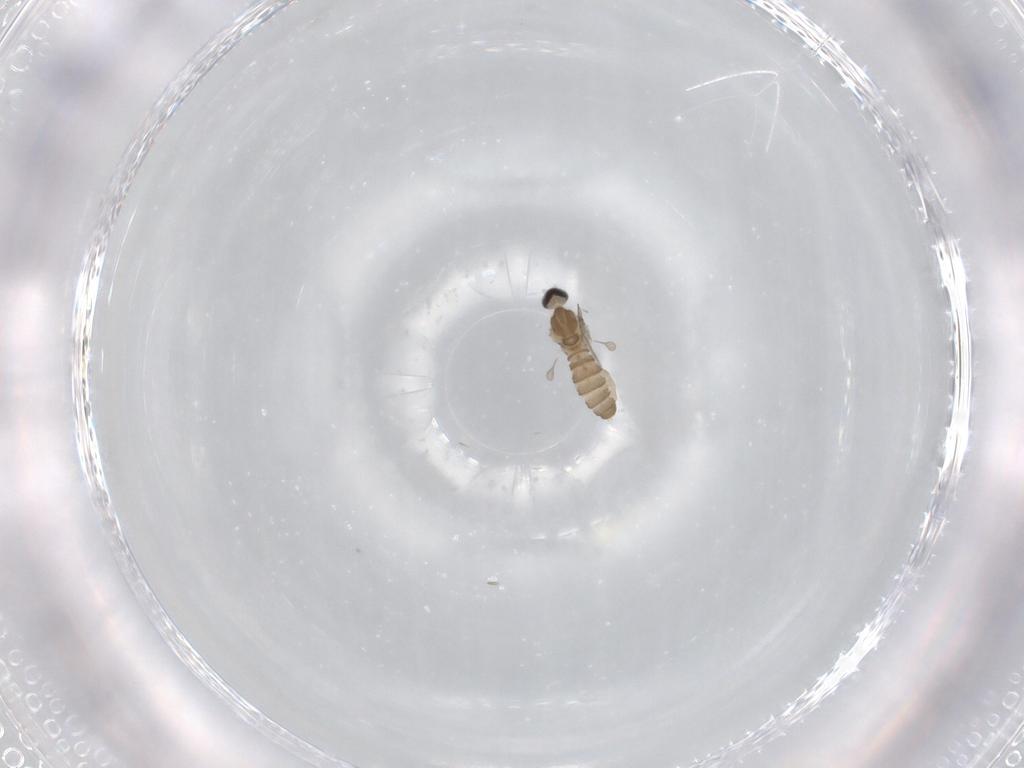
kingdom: Animalia
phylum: Arthropoda
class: Insecta
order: Diptera
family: Cecidomyiidae
